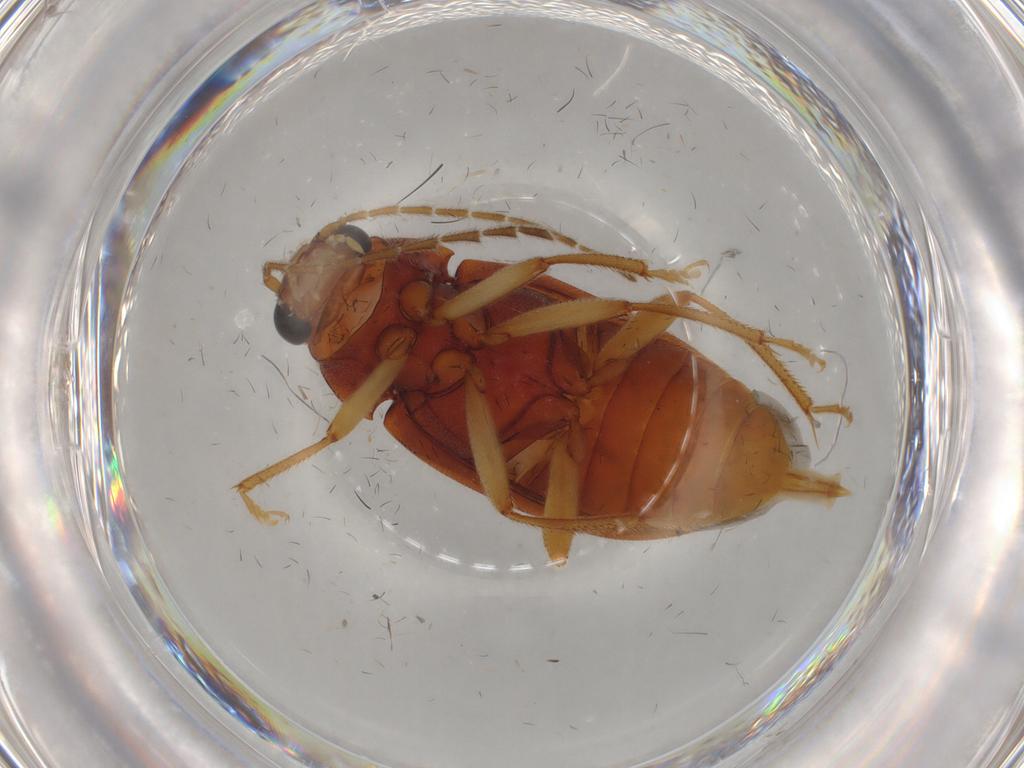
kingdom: Animalia
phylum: Arthropoda
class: Insecta
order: Coleoptera
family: Ptilodactylidae
